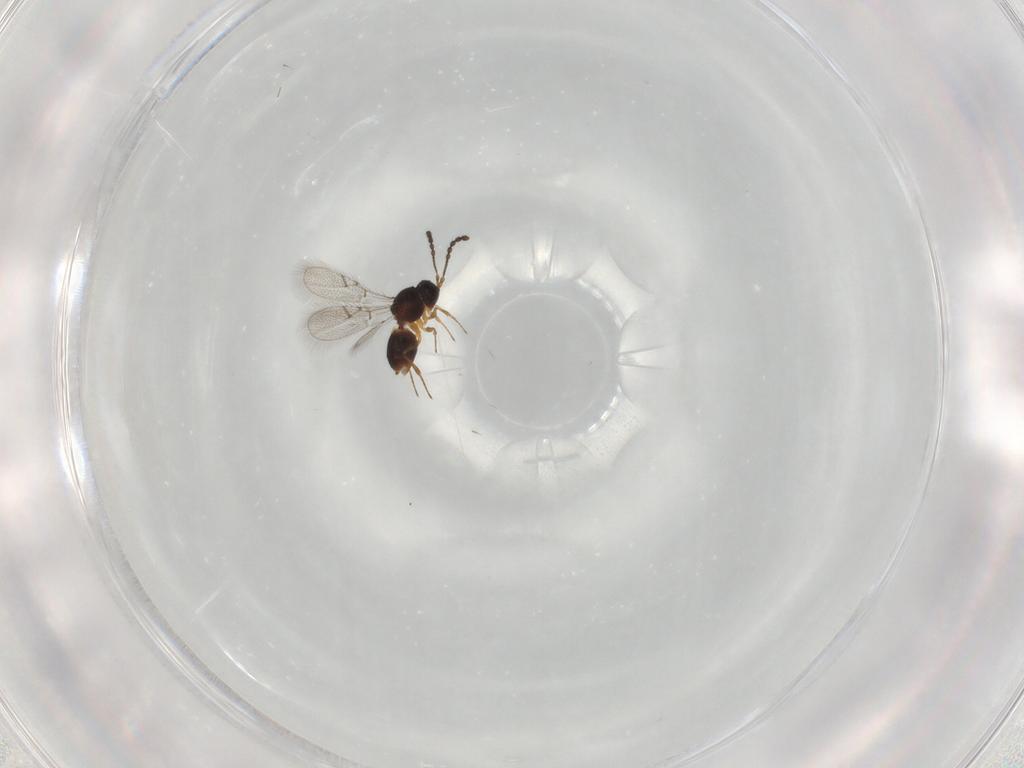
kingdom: Animalia
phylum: Arthropoda
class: Insecta
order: Hymenoptera
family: Figitidae
